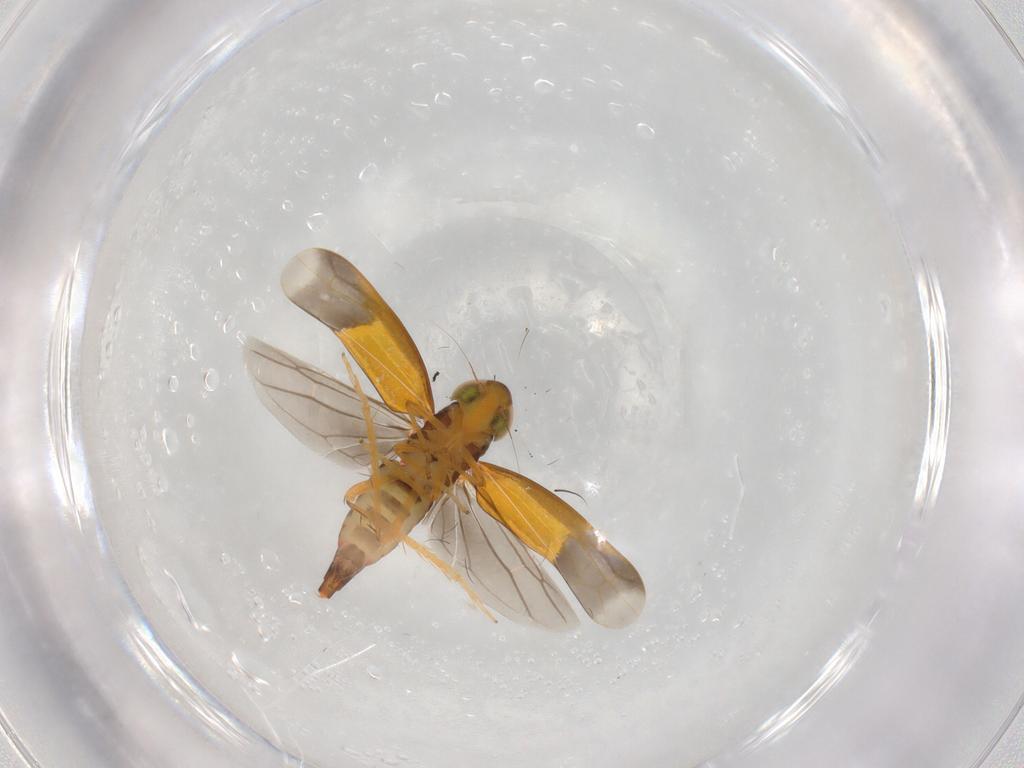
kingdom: Animalia
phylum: Arthropoda
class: Insecta
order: Hemiptera
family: Cicadellidae
